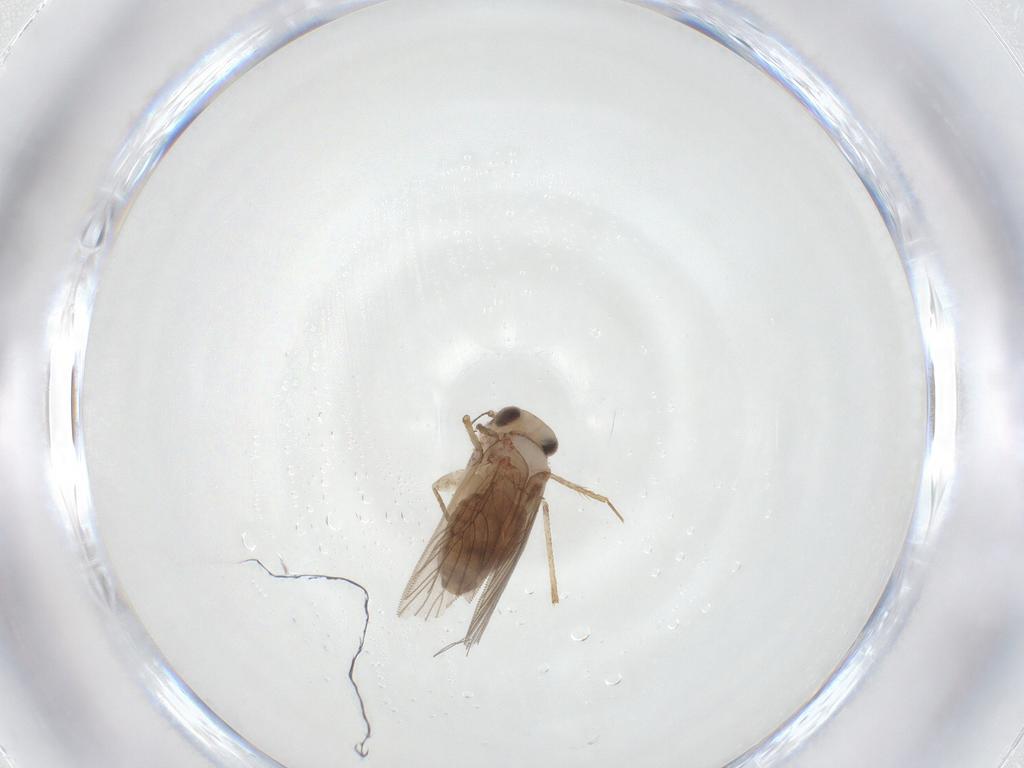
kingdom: Animalia
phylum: Arthropoda
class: Insecta
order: Psocodea
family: Lepidopsocidae
